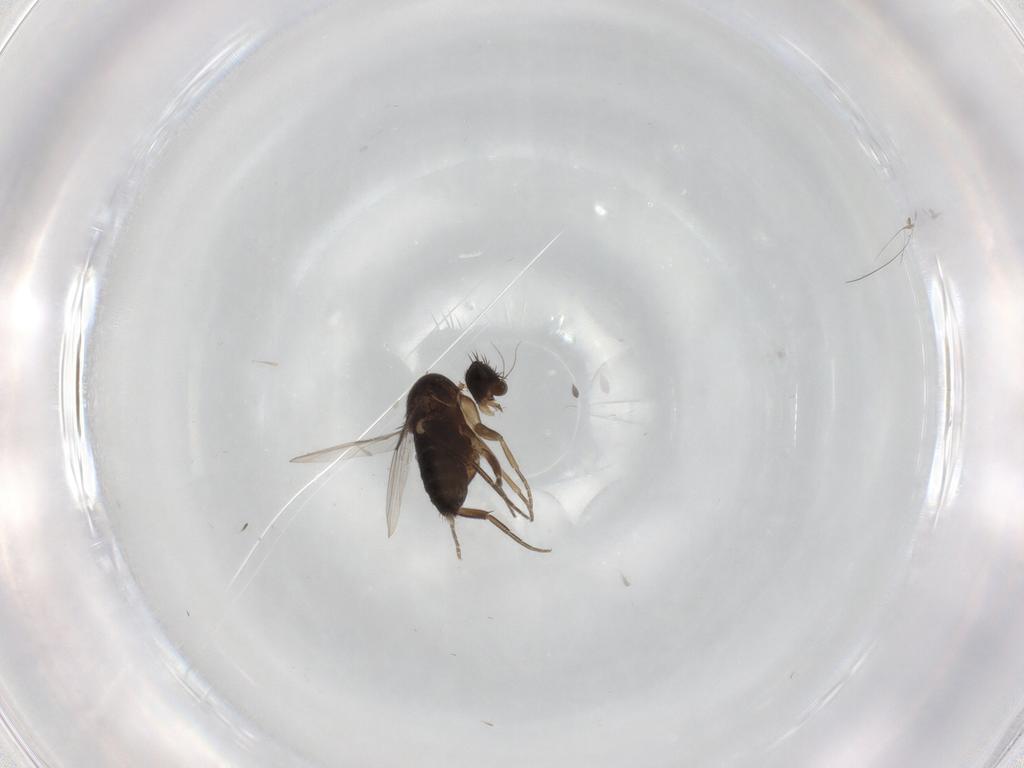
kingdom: Animalia
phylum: Arthropoda
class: Insecta
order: Diptera
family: Phoridae
